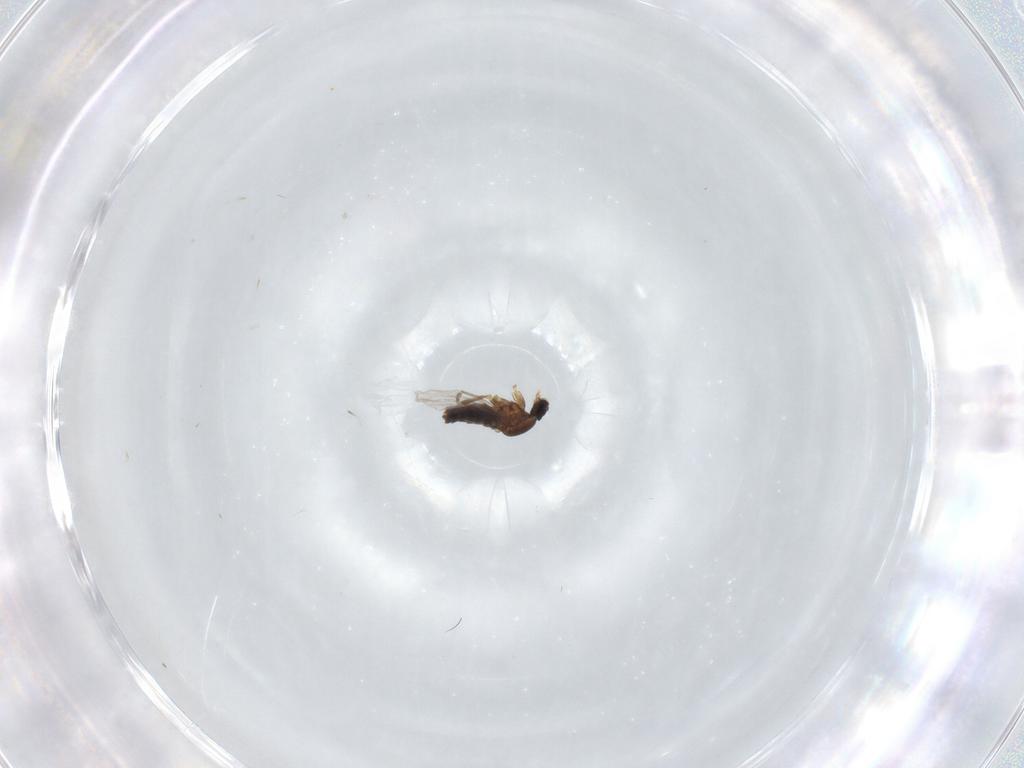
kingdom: Animalia
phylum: Arthropoda
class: Insecta
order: Diptera
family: Scatopsidae
